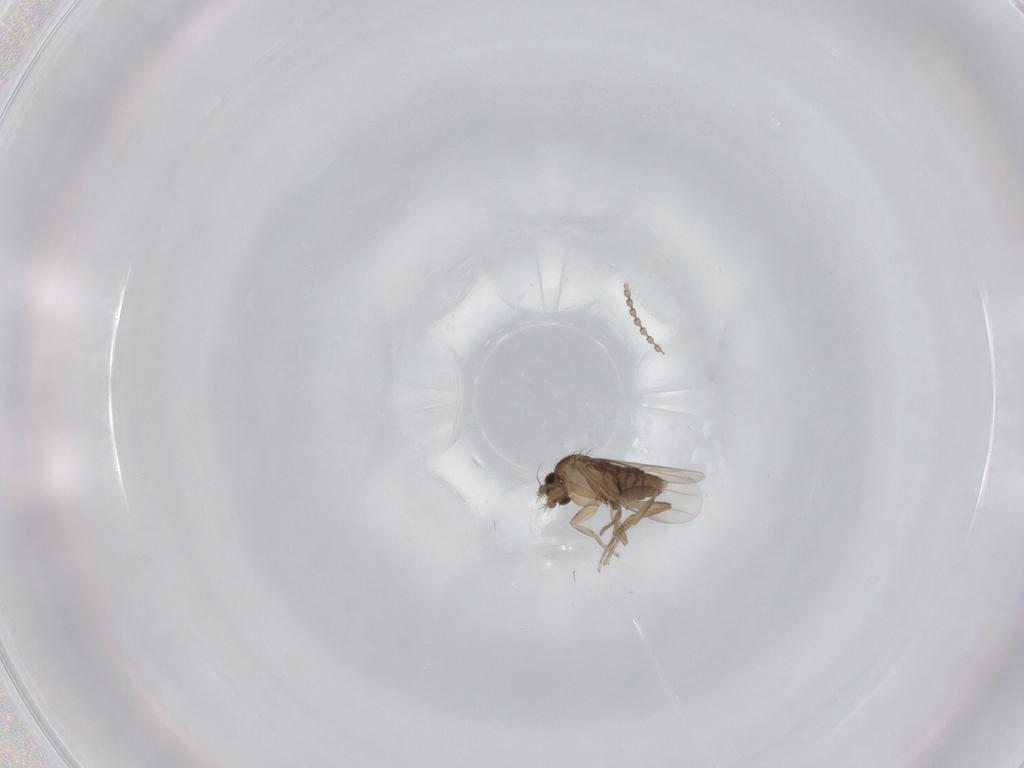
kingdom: Animalia
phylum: Arthropoda
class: Insecta
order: Diptera
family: Phoridae
